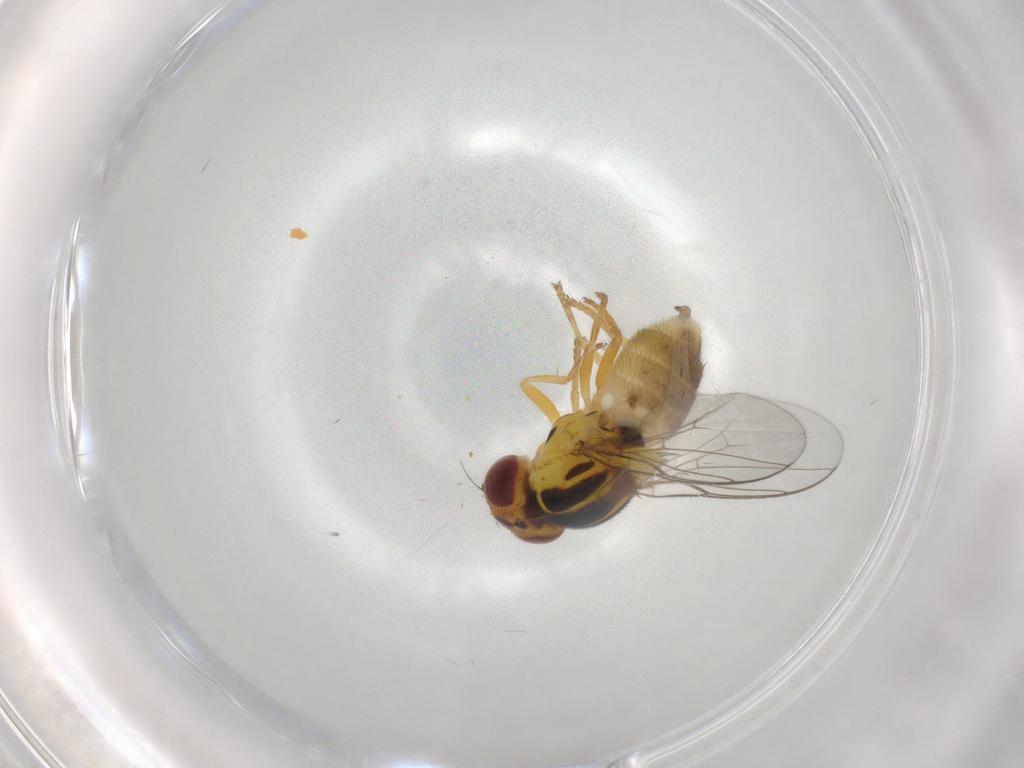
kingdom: Animalia
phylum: Arthropoda
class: Insecta
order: Diptera
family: Chloropidae
